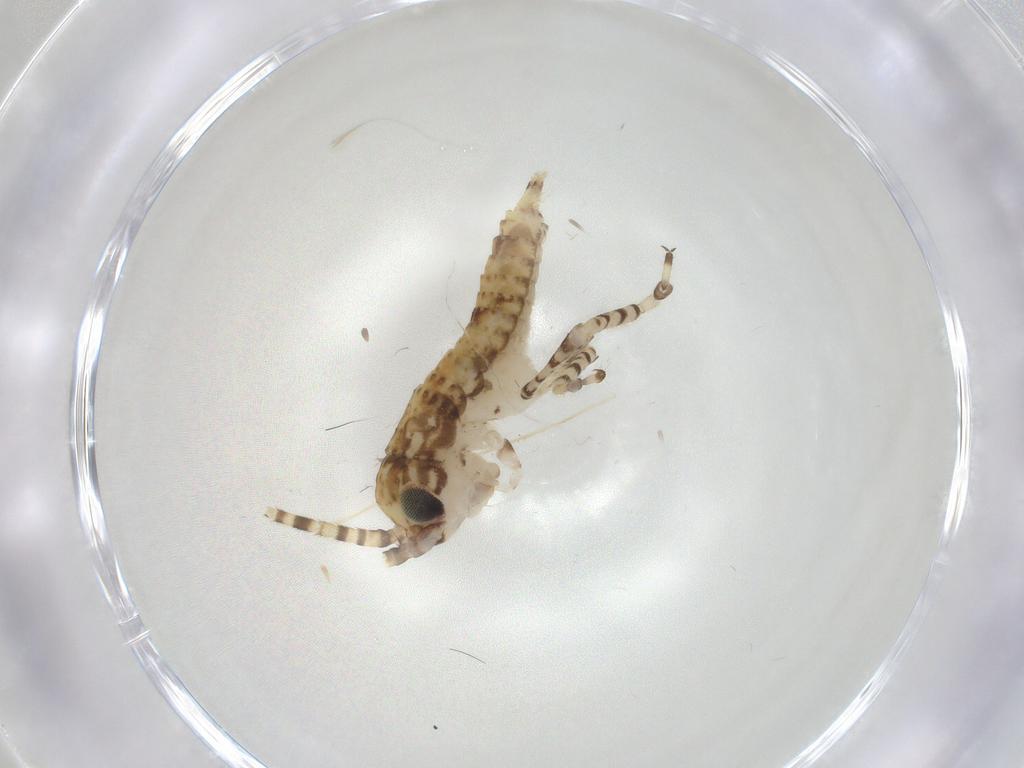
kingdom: Animalia
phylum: Arthropoda
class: Insecta
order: Orthoptera
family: Gryllidae
